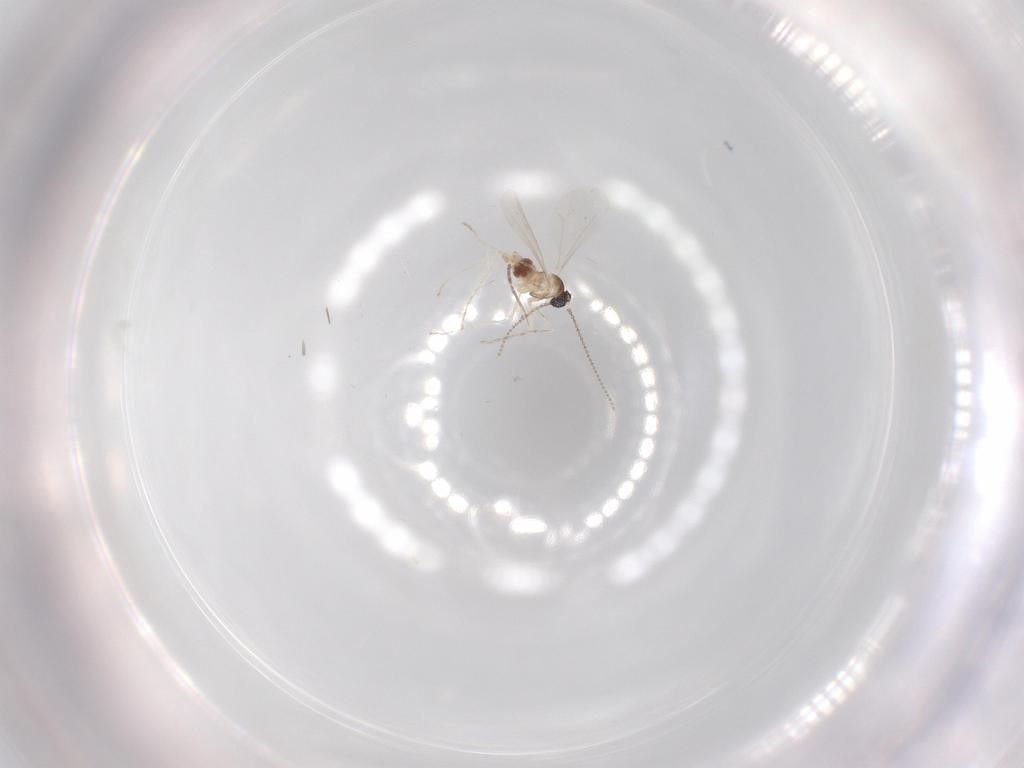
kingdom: Animalia
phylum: Arthropoda
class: Insecta
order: Diptera
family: Cecidomyiidae
